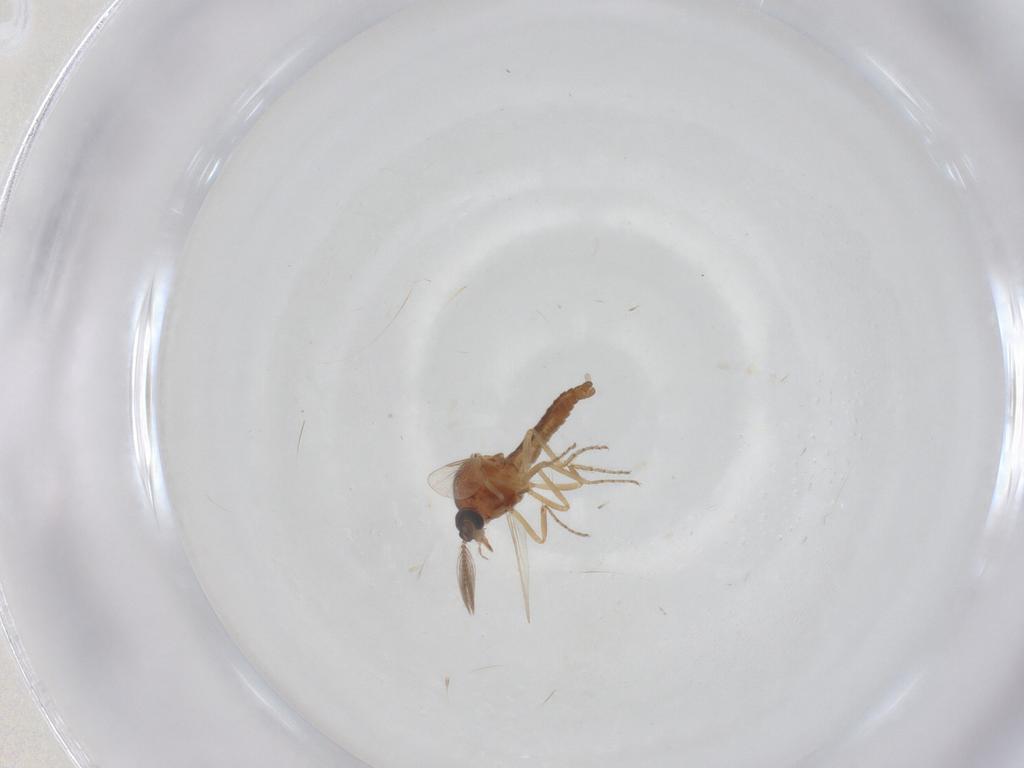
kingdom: Animalia
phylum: Arthropoda
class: Insecta
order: Diptera
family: Ceratopogonidae
